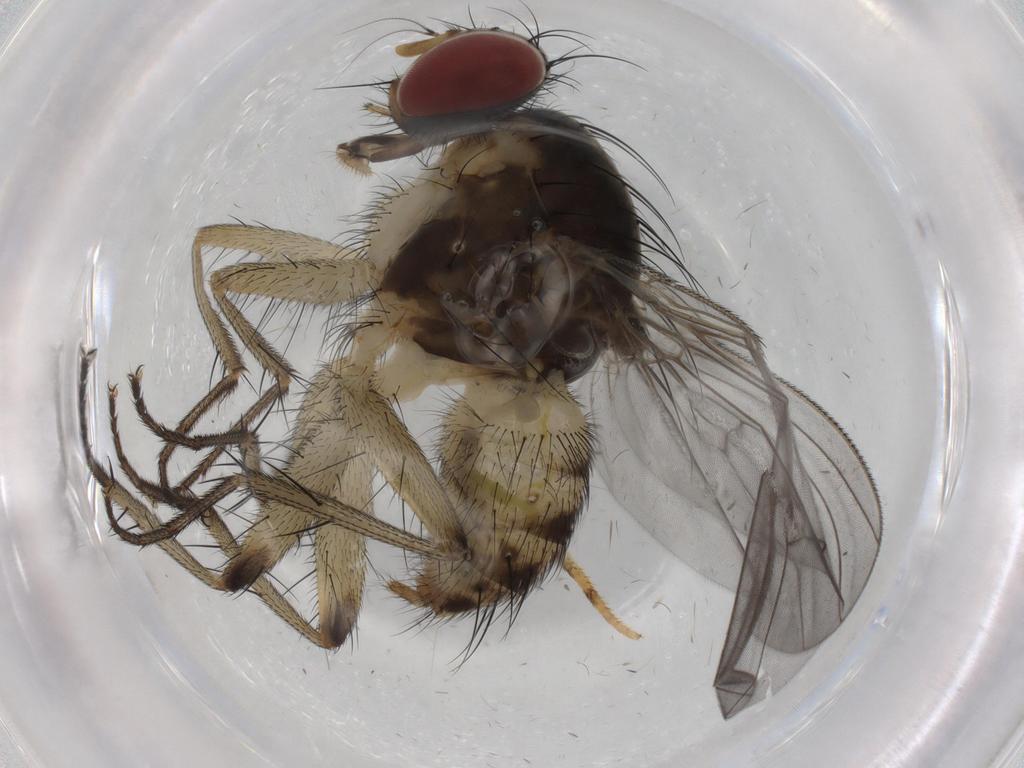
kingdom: Animalia
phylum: Arthropoda
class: Insecta
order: Diptera
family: Muscidae
